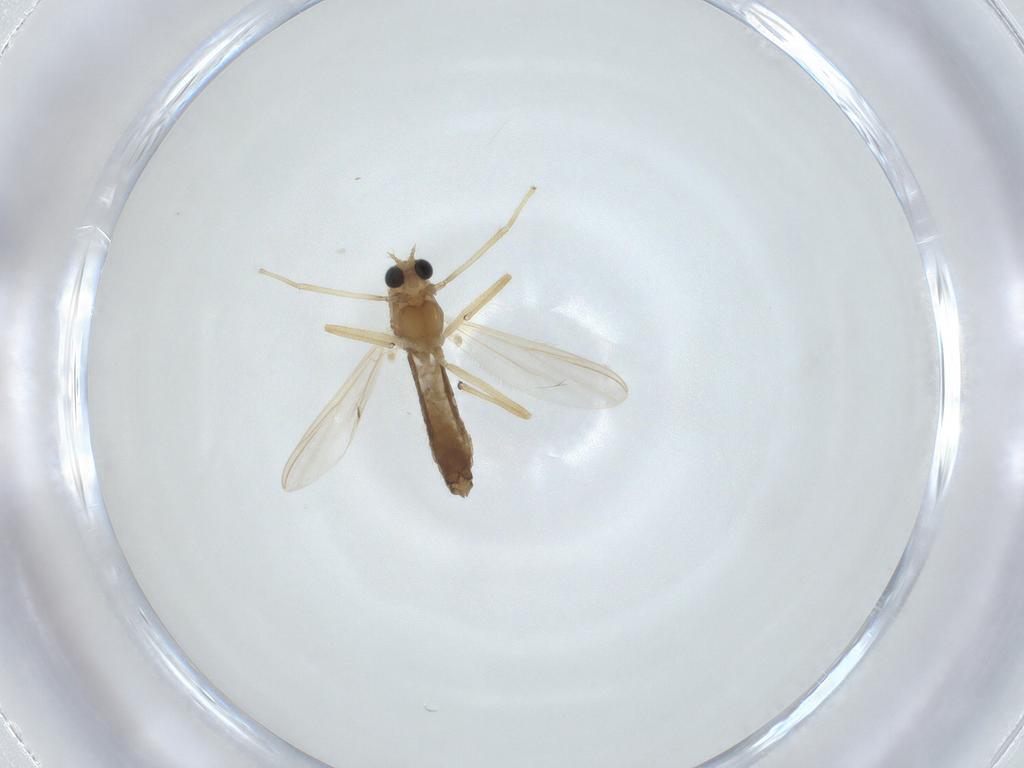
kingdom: Animalia
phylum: Arthropoda
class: Insecta
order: Diptera
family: Chironomidae
